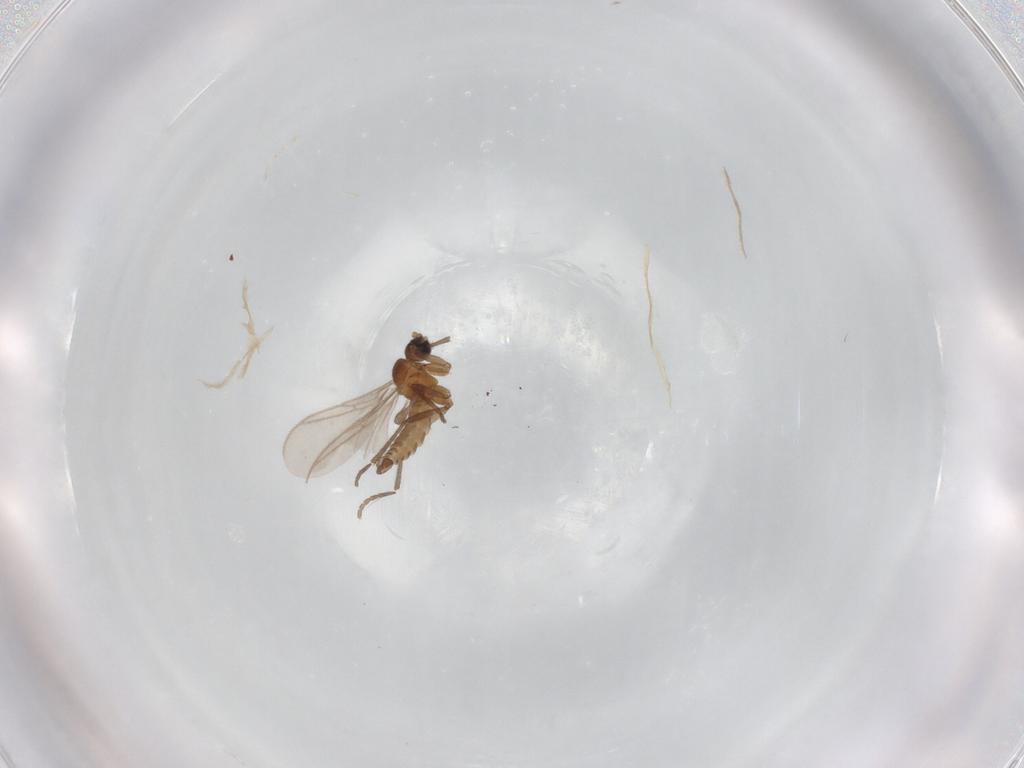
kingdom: Animalia
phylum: Arthropoda
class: Insecta
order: Diptera
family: Sciaridae
